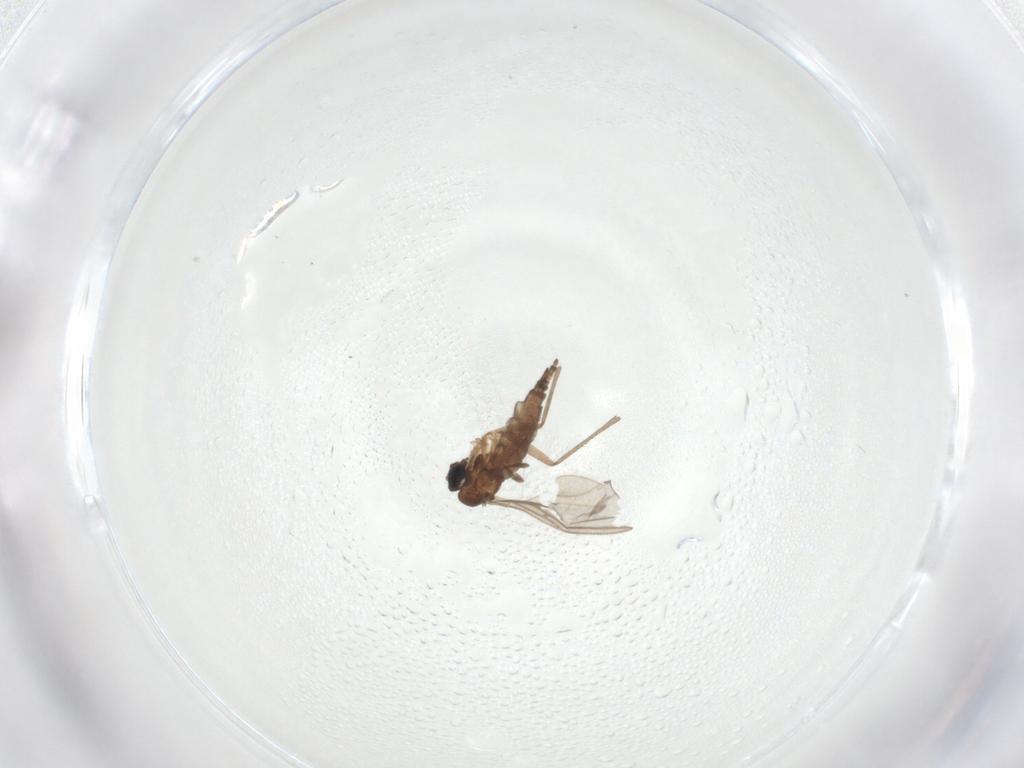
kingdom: Animalia
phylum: Arthropoda
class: Insecta
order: Diptera
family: Sciaridae
